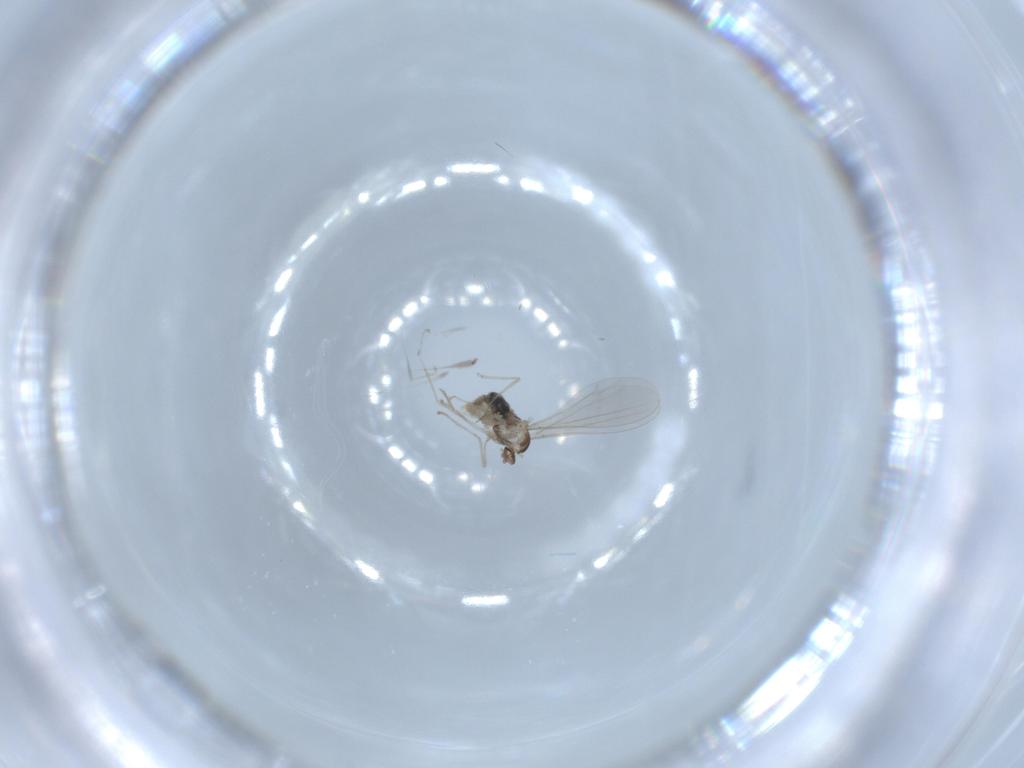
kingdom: Animalia
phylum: Arthropoda
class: Insecta
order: Diptera
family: Cecidomyiidae
